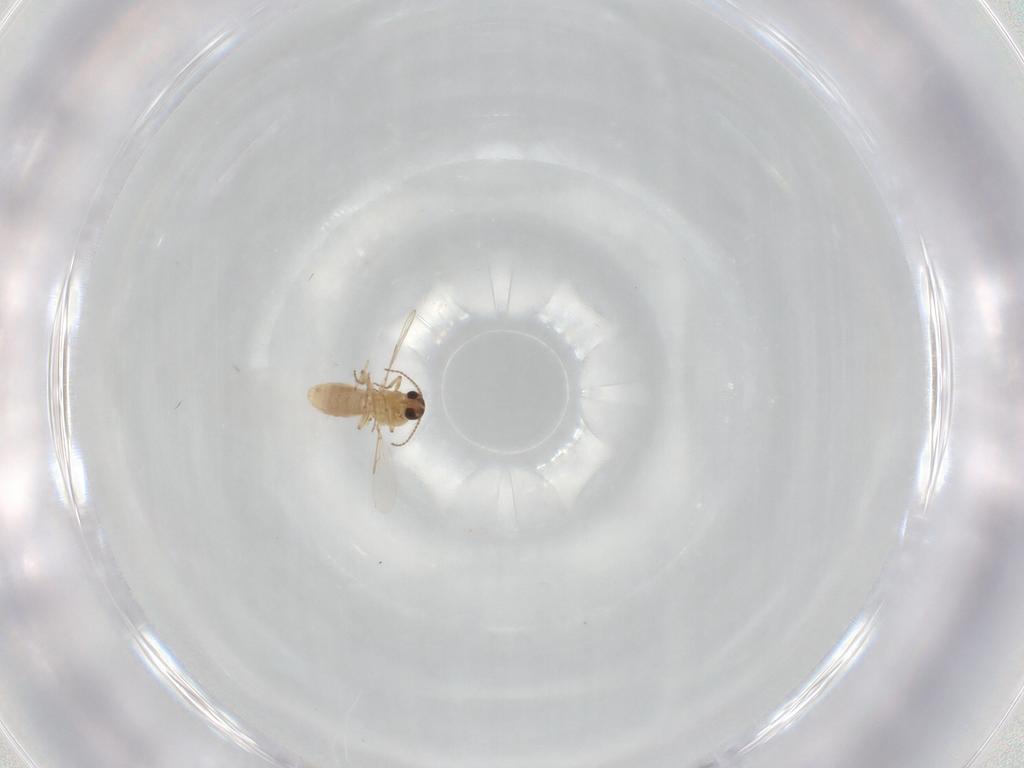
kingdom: Animalia
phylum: Arthropoda
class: Insecta
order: Diptera
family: Ceratopogonidae
